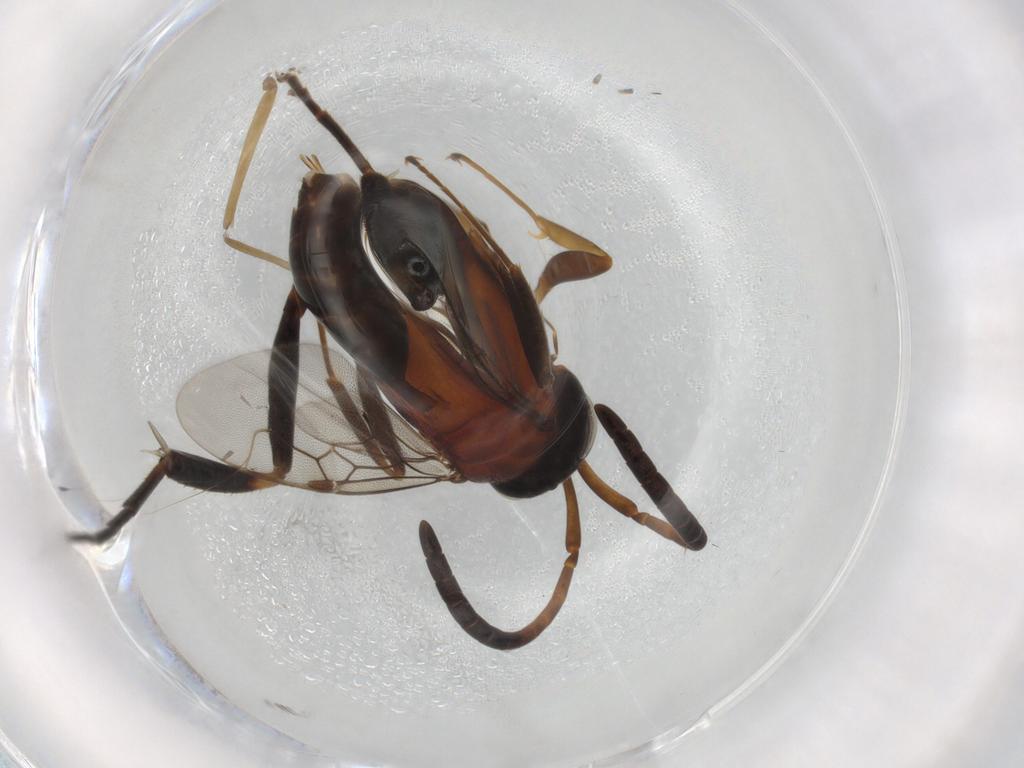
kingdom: Animalia
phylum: Arthropoda
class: Insecta
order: Hymenoptera
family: Evaniidae
